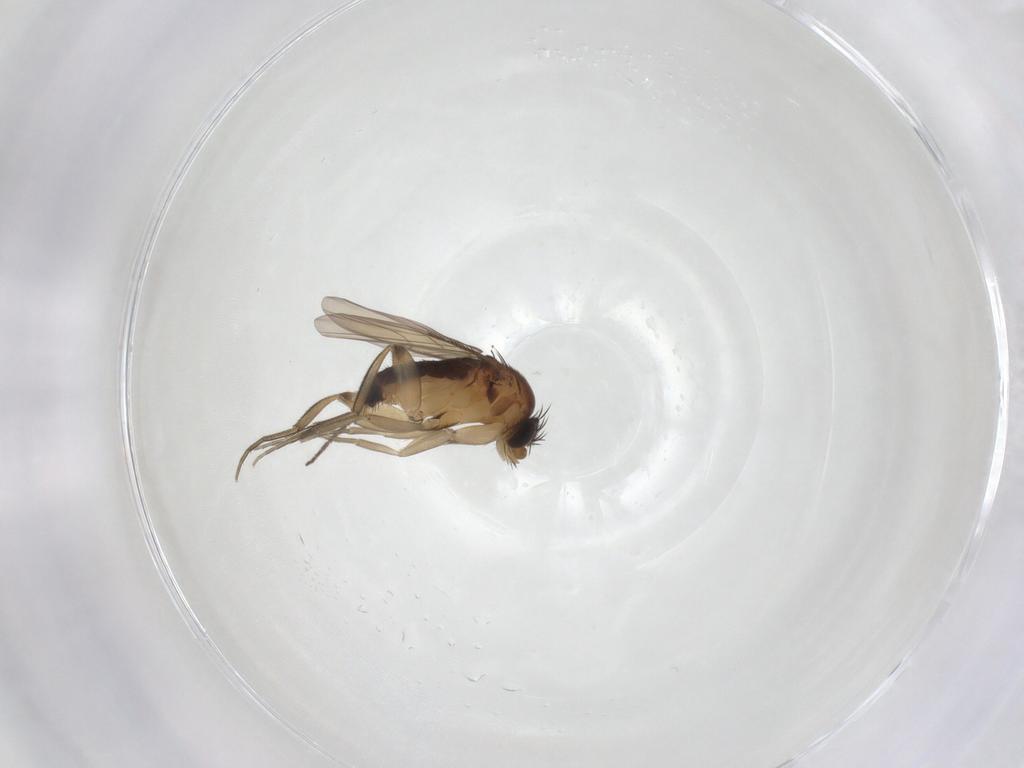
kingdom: Animalia
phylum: Arthropoda
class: Insecta
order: Diptera
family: Sciaridae
